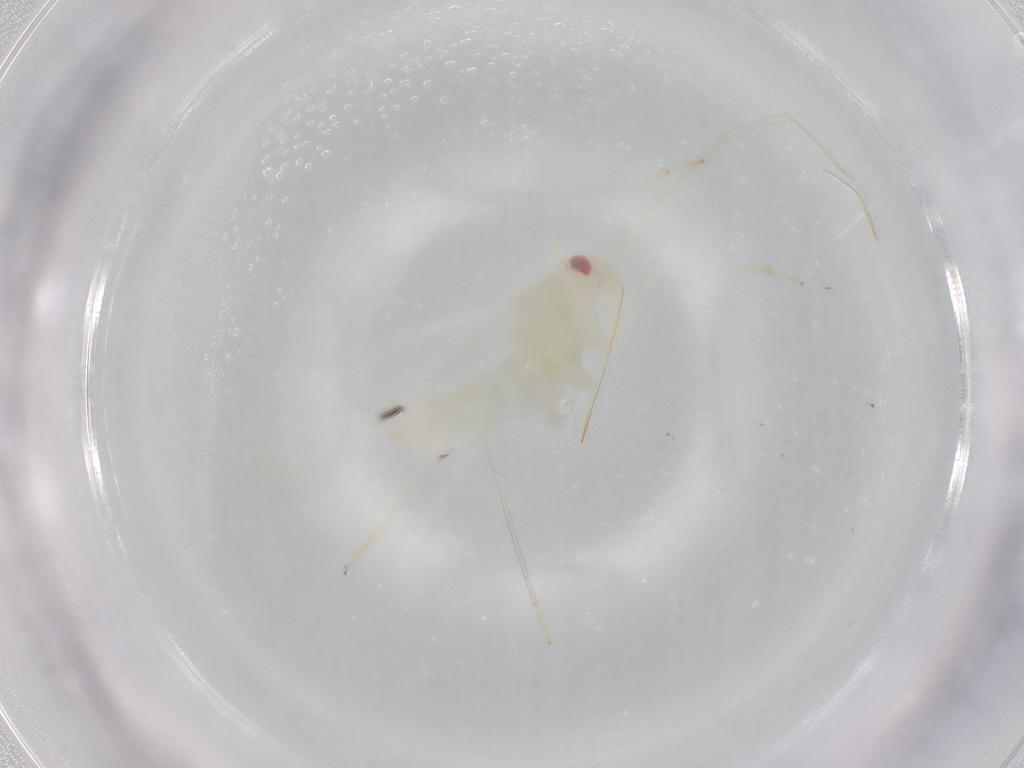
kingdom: Animalia
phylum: Arthropoda
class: Insecta
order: Hemiptera
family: Miridae
